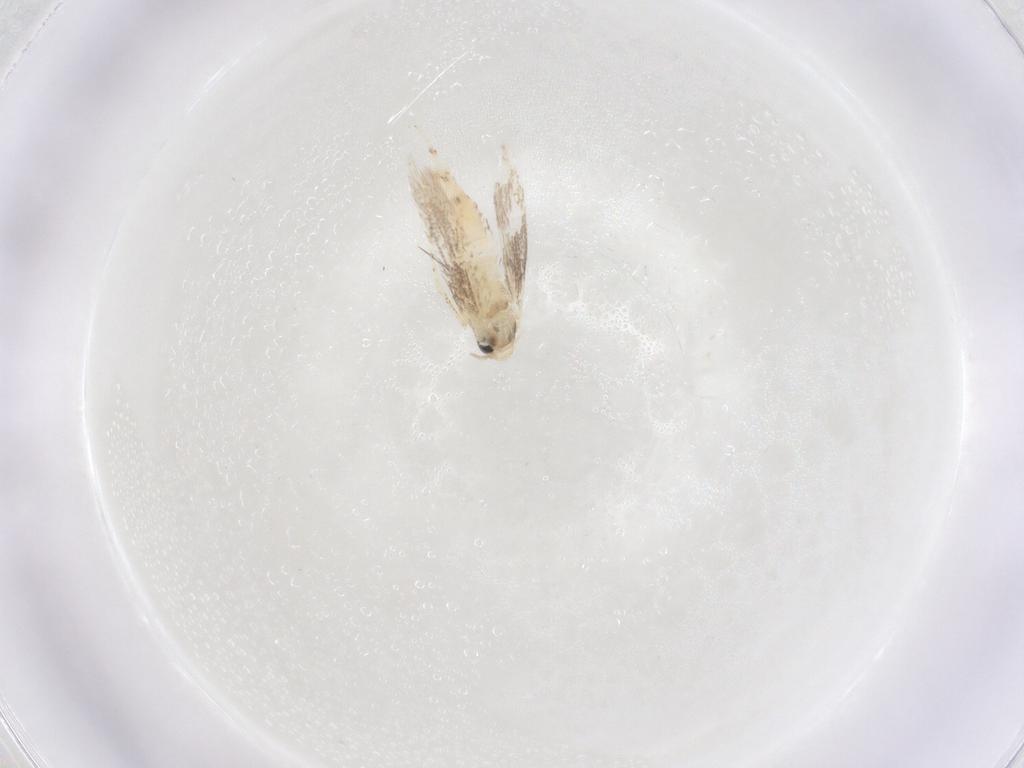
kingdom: Animalia
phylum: Arthropoda
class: Insecta
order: Lepidoptera
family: Gracillariidae
